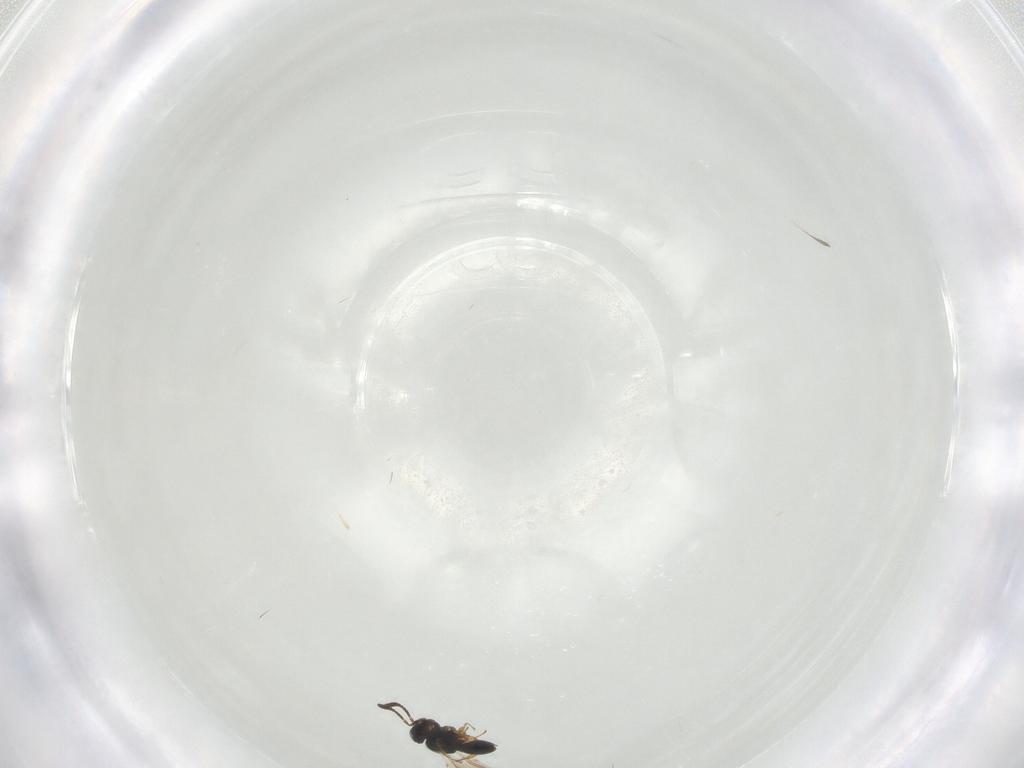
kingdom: Animalia
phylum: Arthropoda
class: Insecta
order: Hymenoptera
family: Scelionidae
